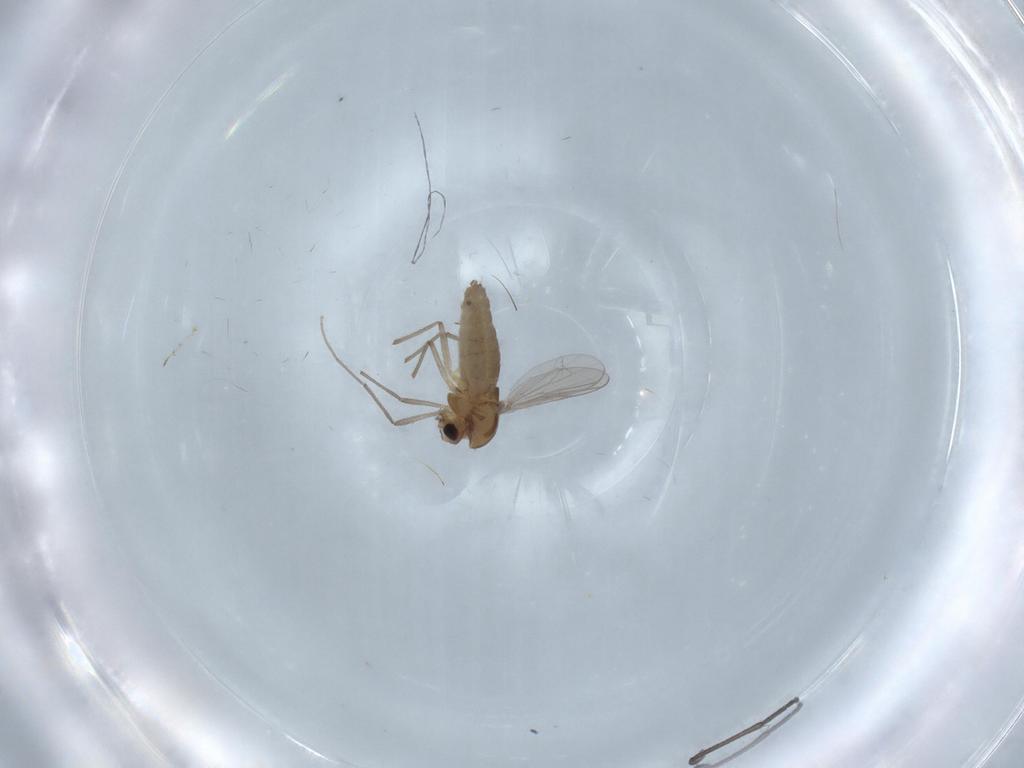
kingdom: Animalia
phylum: Arthropoda
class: Insecta
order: Diptera
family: Chironomidae
